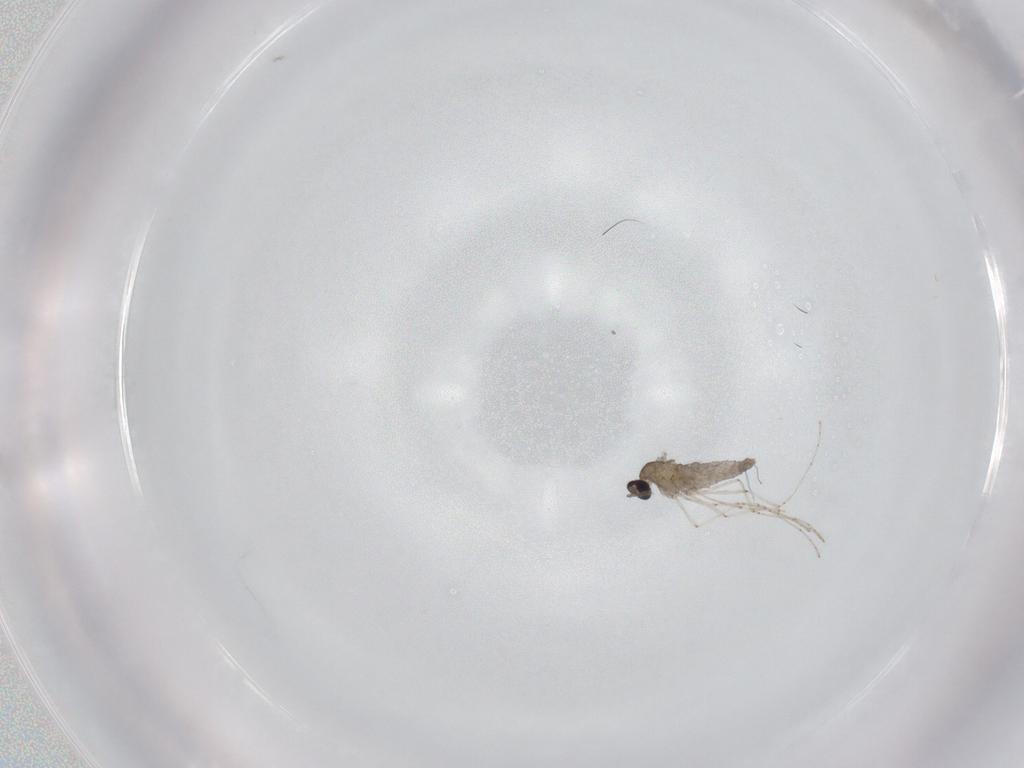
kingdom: Animalia
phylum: Arthropoda
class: Insecta
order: Diptera
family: Cecidomyiidae
